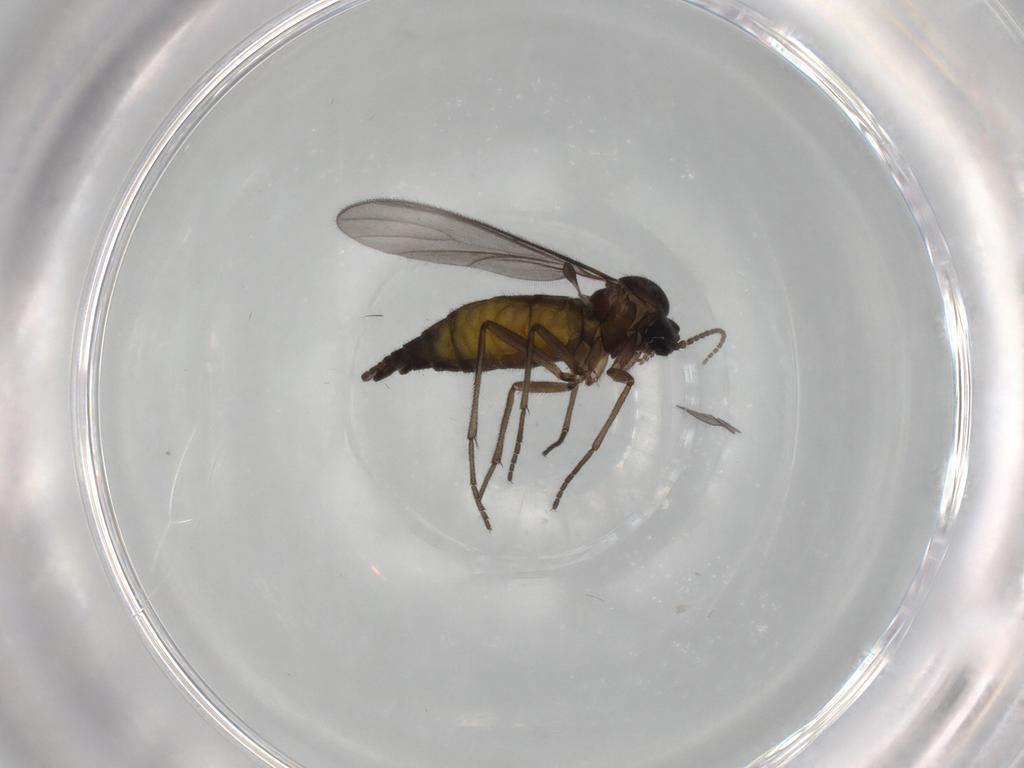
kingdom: Animalia
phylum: Arthropoda
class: Insecta
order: Diptera
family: Sciaridae
